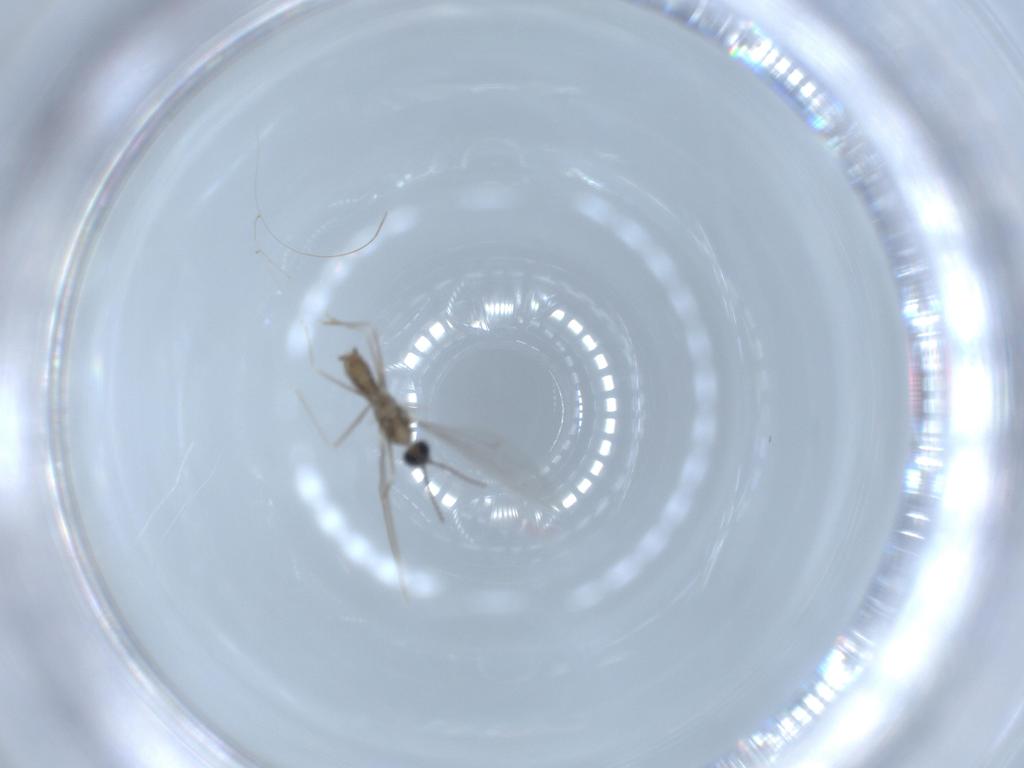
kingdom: Animalia
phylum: Arthropoda
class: Insecta
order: Diptera
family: Cecidomyiidae
